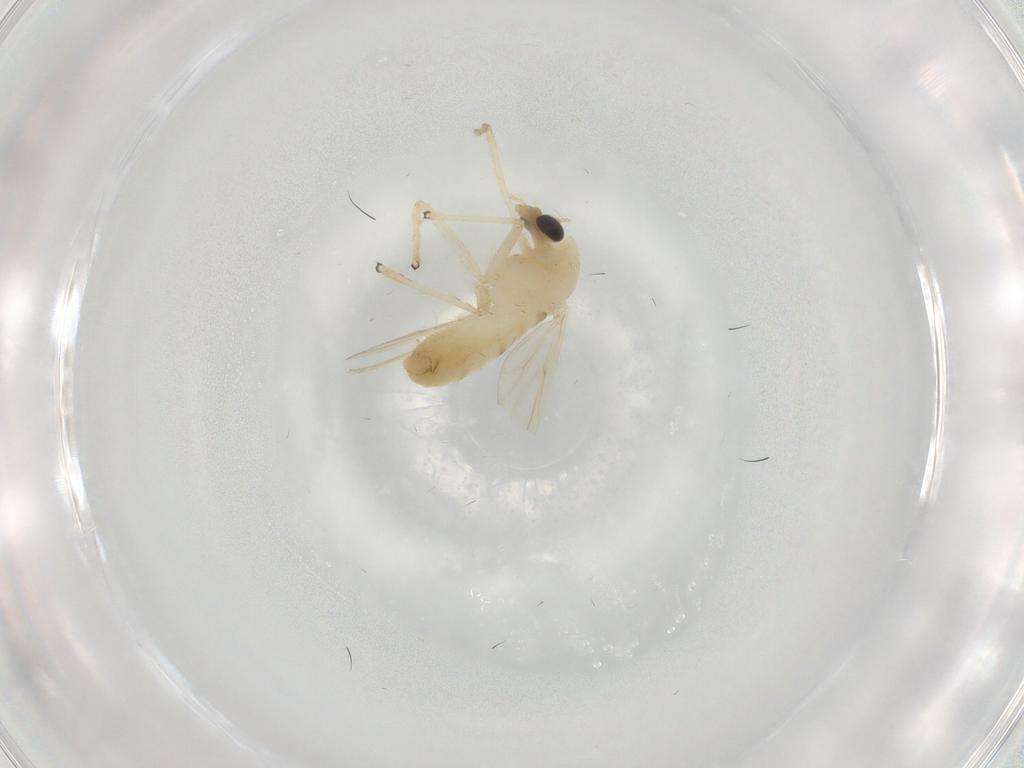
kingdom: Animalia
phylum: Arthropoda
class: Insecta
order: Diptera
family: Chironomidae
